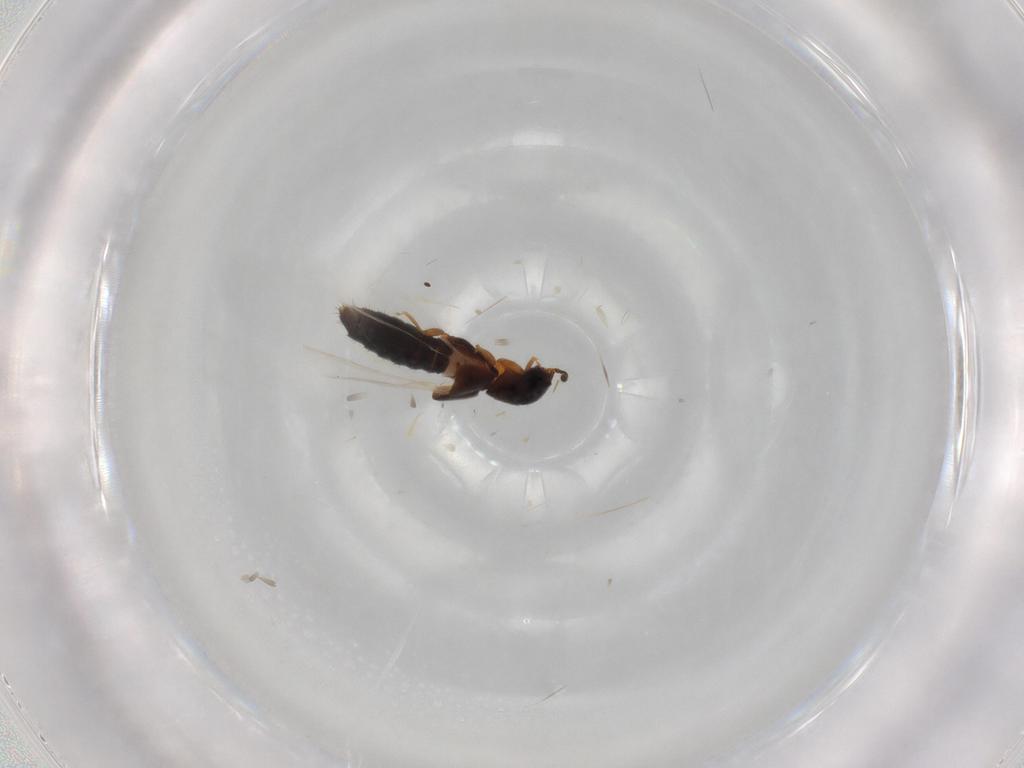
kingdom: Animalia
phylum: Arthropoda
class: Insecta
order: Coleoptera
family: Staphylinidae
